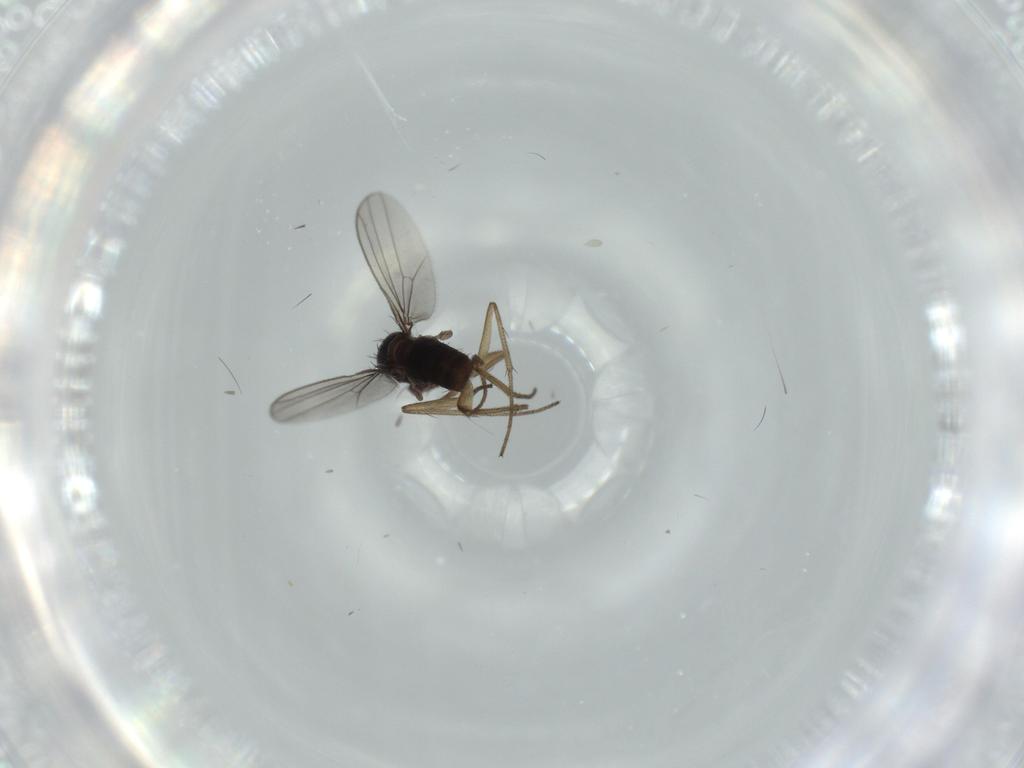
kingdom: Animalia
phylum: Arthropoda
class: Insecta
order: Diptera
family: Dolichopodidae
